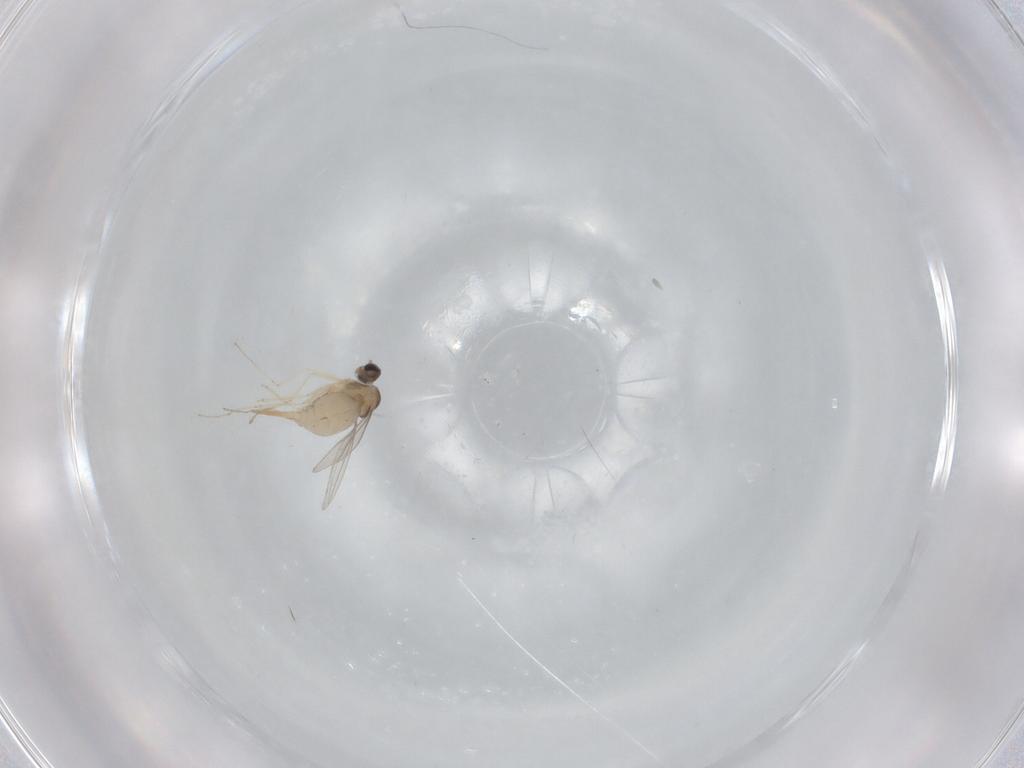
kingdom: Animalia
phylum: Arthropoda
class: Insecta
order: Diptera
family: Cecidomyiidae
